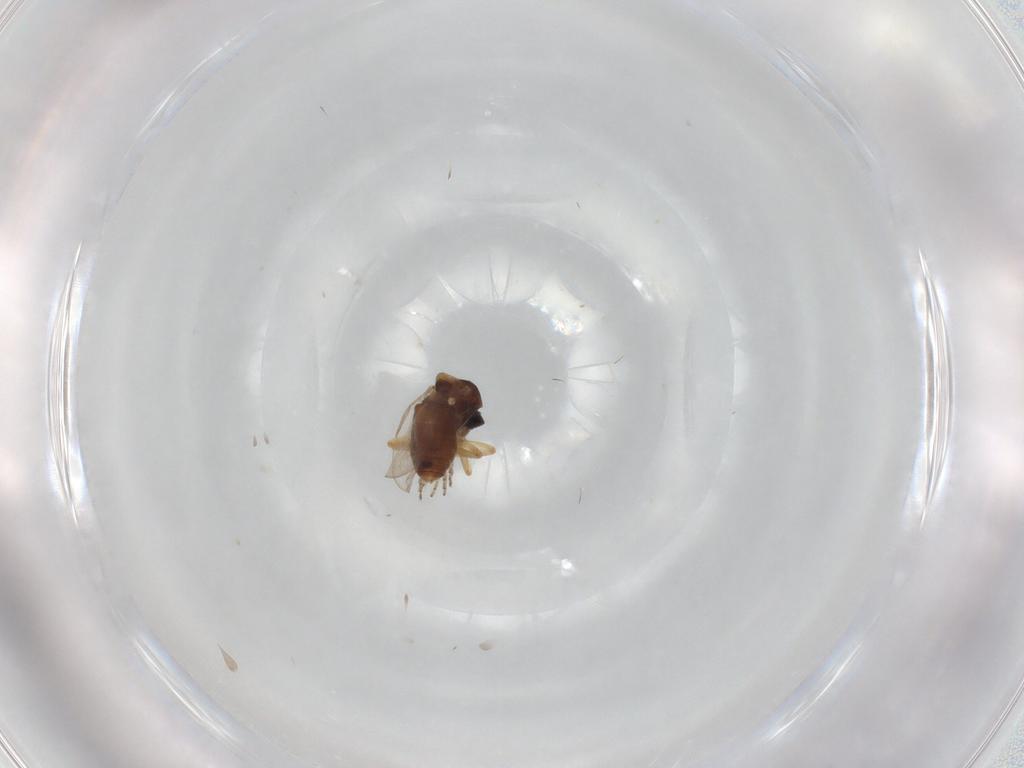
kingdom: Animalia
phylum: Arthropoda
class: Insecta
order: Diptera
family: Ceratopogonidae
